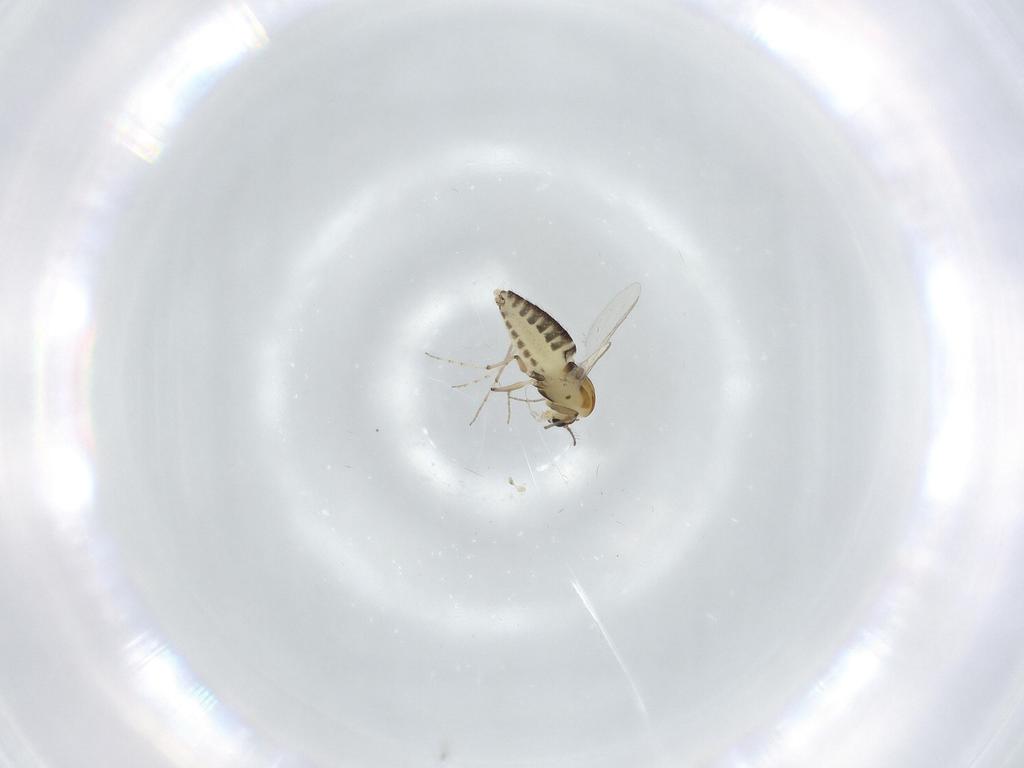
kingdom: Animalia
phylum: Arthropoda
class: Insecta
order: Diptera
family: Chironomidae
